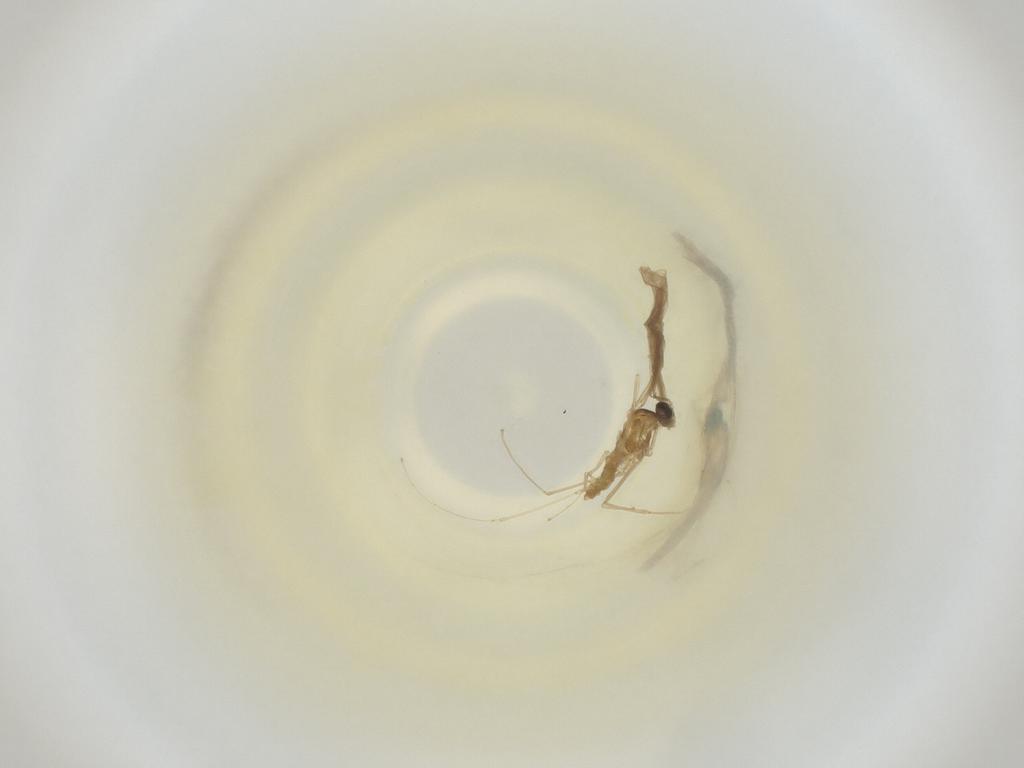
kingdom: Animalia
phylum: Arthropoda
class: Insecta
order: Diptera
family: Cecidomyiidae
